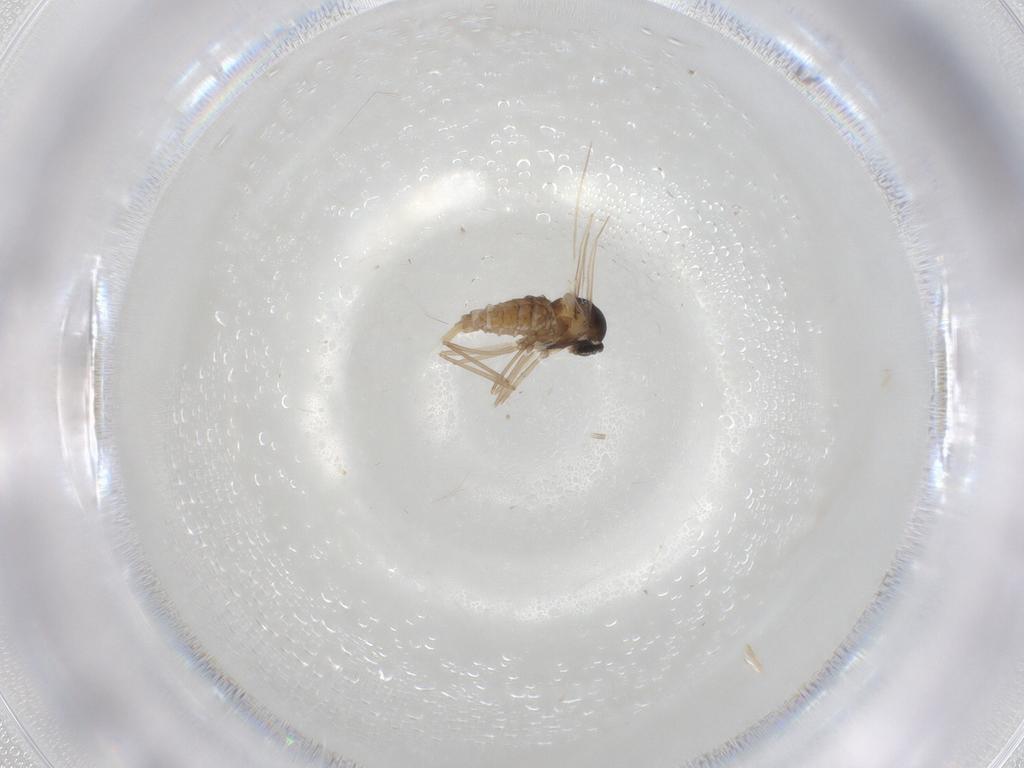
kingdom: Animalia
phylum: Arthropoda
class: Insecta
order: Diptera
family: Cecidomyiidae
